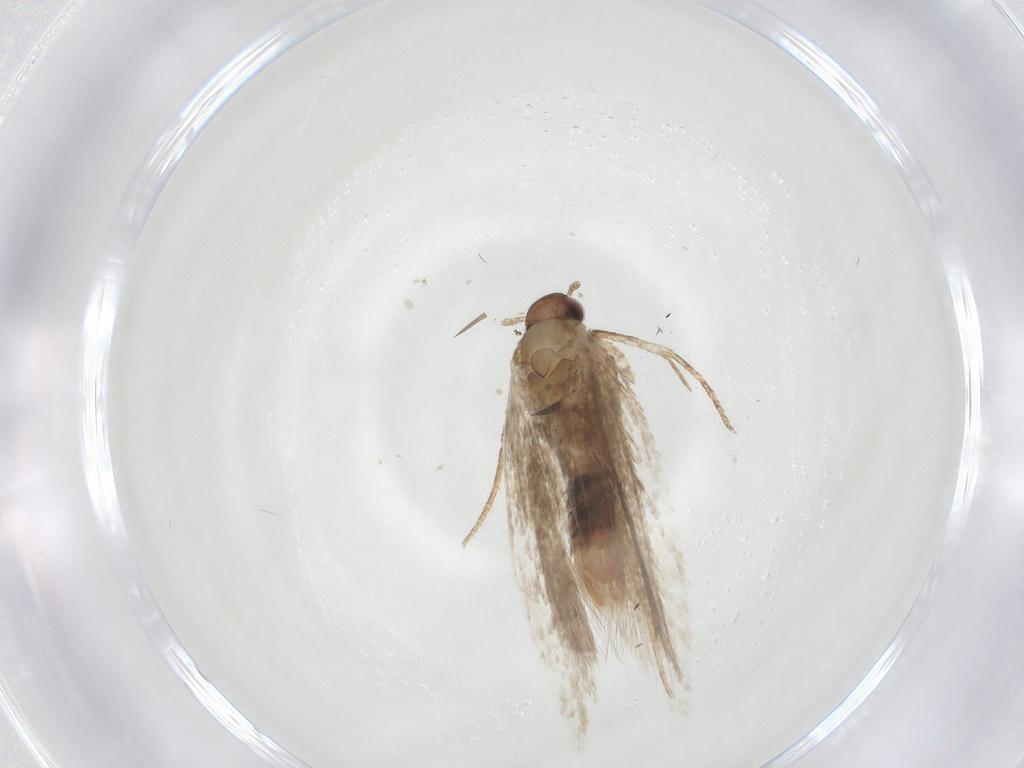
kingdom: Animalia
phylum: Arthropoda
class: Insecta
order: Lepidoptera
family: Gelechiidae
